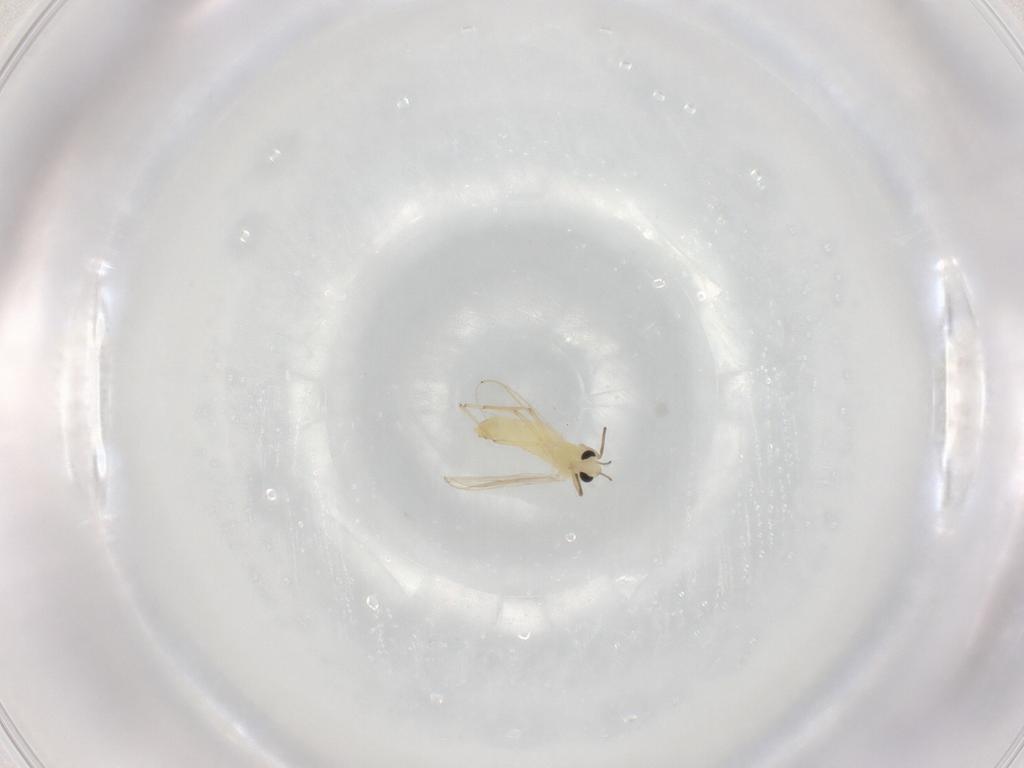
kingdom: Animalia
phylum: Arthropoda
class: Insecta
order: Diptera
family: Chironomidae
